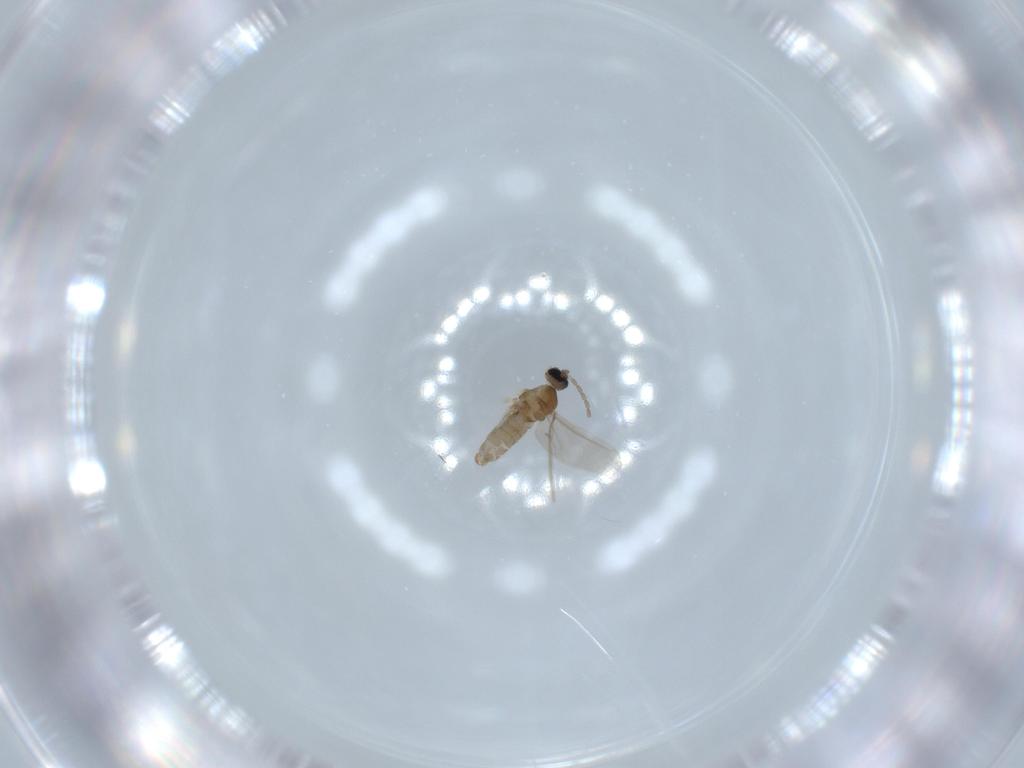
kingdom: Animalia
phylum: Arthropoda
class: Insecta
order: Diptera
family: Cecidomyiidae
